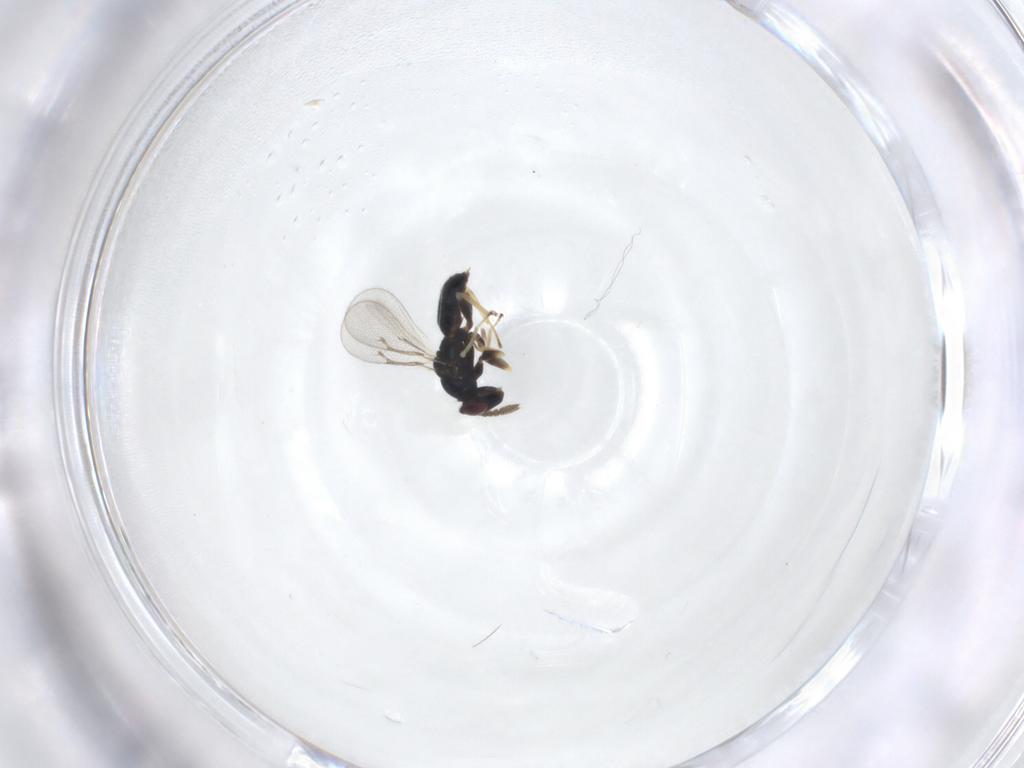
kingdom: Animalia
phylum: Arthropoda
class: Insecta
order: Hymenoptera
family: Eulophidae
